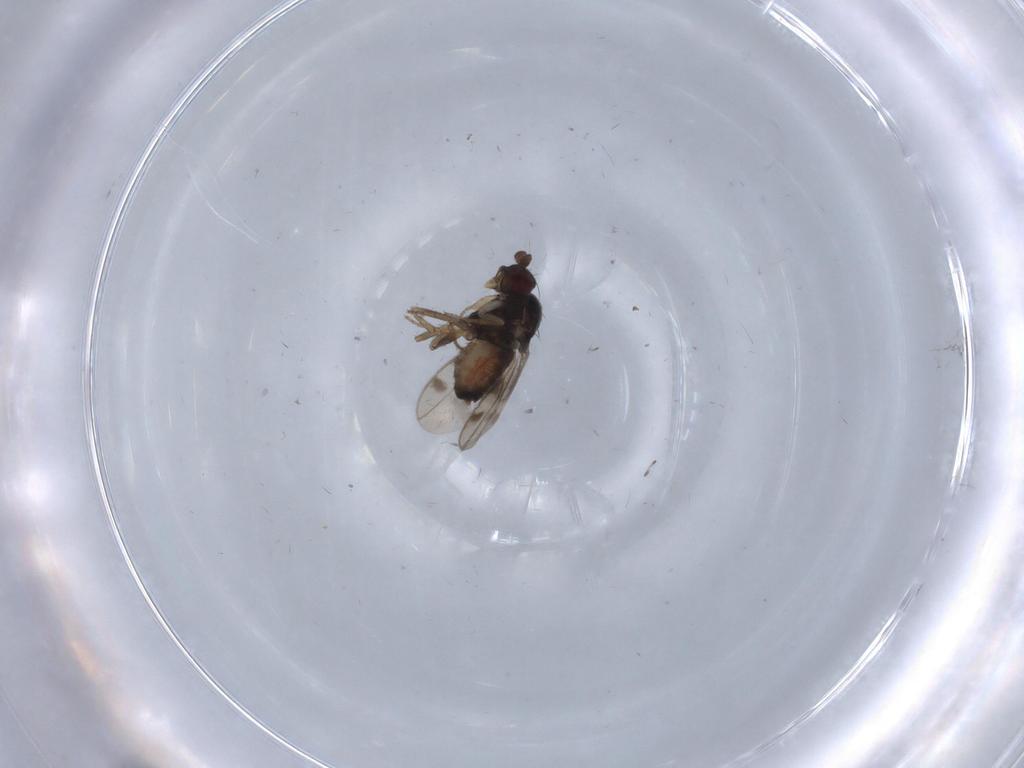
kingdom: Animalia
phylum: Arthropoda
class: Insecta
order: Diptera
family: Sphaeroceridae
